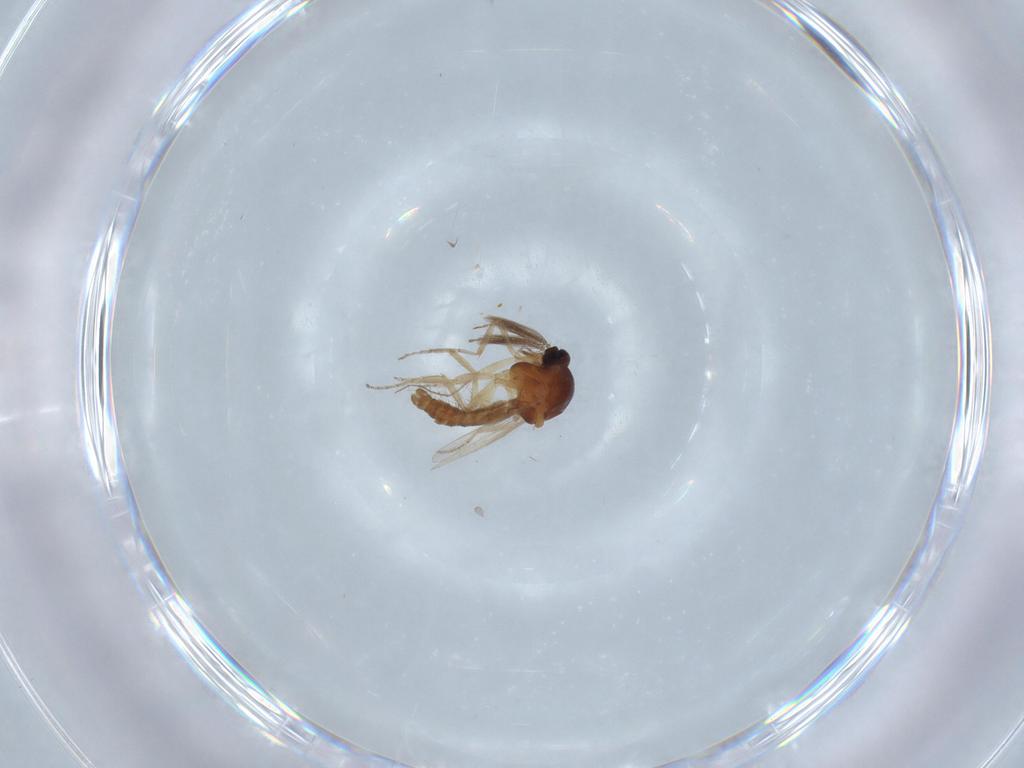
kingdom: Animalia
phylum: Arthropoda
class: Insecta
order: Diptera
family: Ceratopogonidae
